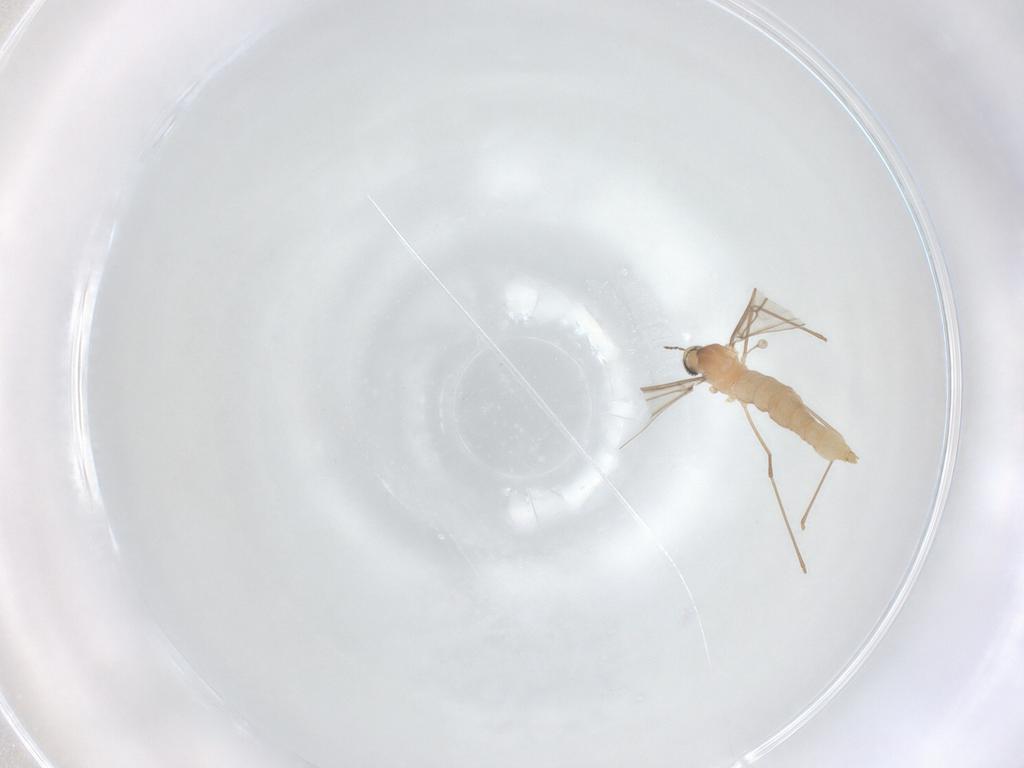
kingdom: Animalia
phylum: Arthropoda
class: Insecta
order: Diptera
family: Cecidomyiidae
